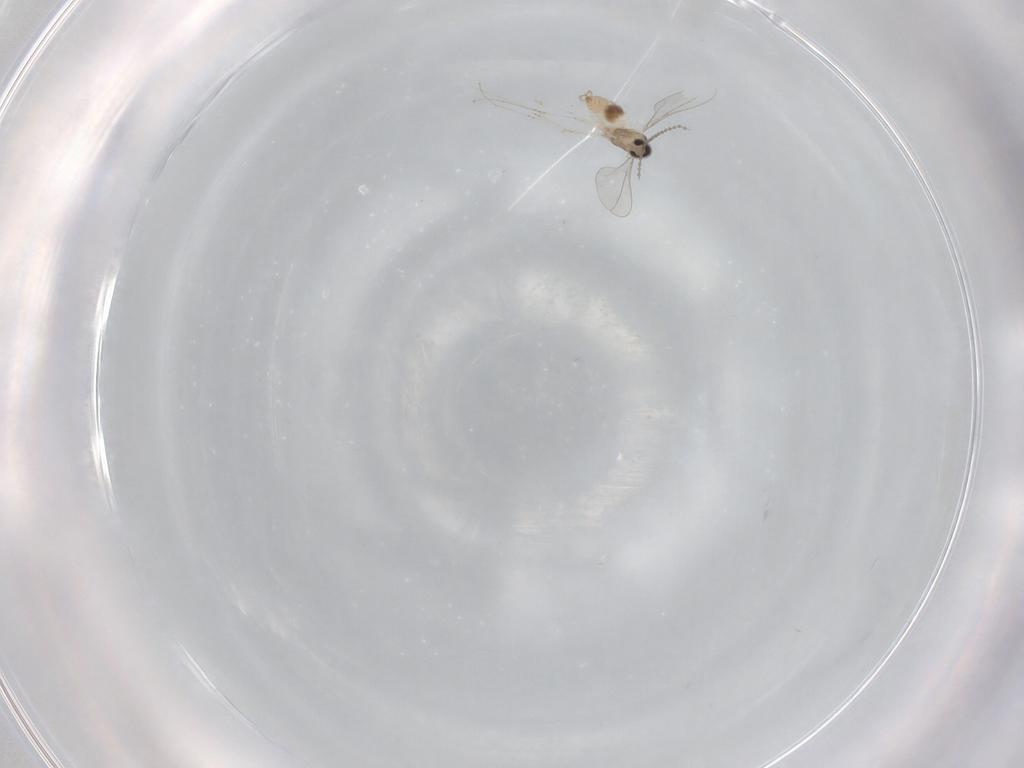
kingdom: Animalia
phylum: Arthropoda
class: Insecta
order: Diptera
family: Cecidomyiidae
